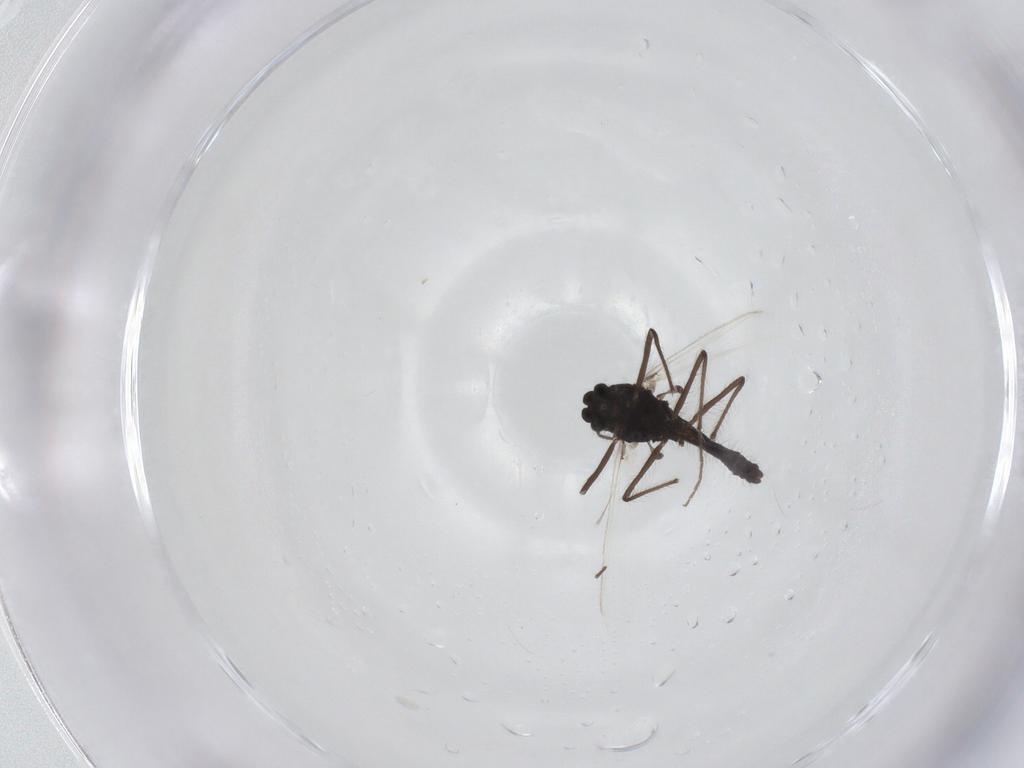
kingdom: Animalia
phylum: Arthropoda
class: Insecta
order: Diptera
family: Chironomidae
